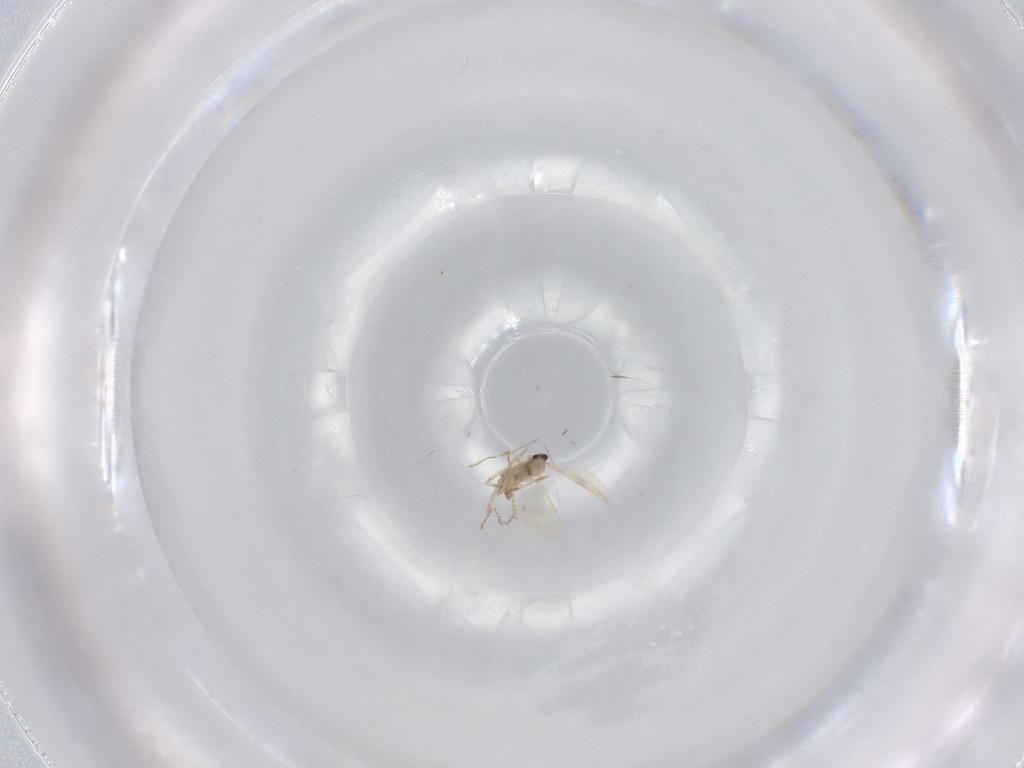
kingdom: Animalia
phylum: Arthropoda
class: Insecta
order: Diptera
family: Cecidomyiidae
